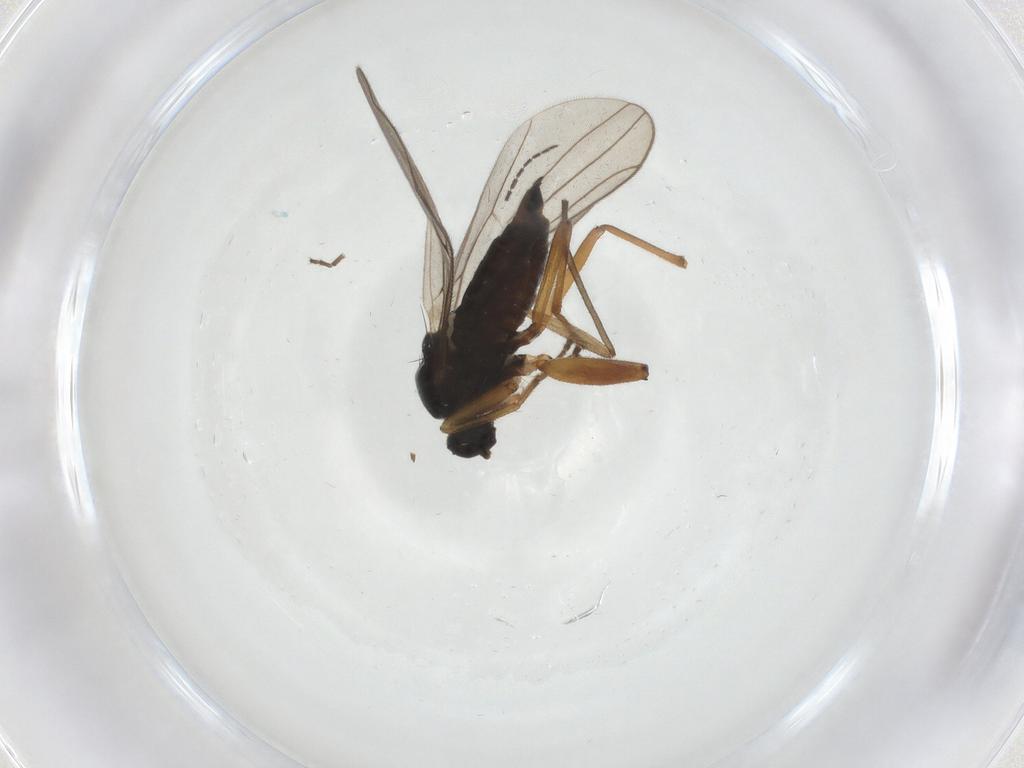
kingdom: Animalia
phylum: Arthropoda
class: Insecta
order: Diptera
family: Hybotidae
